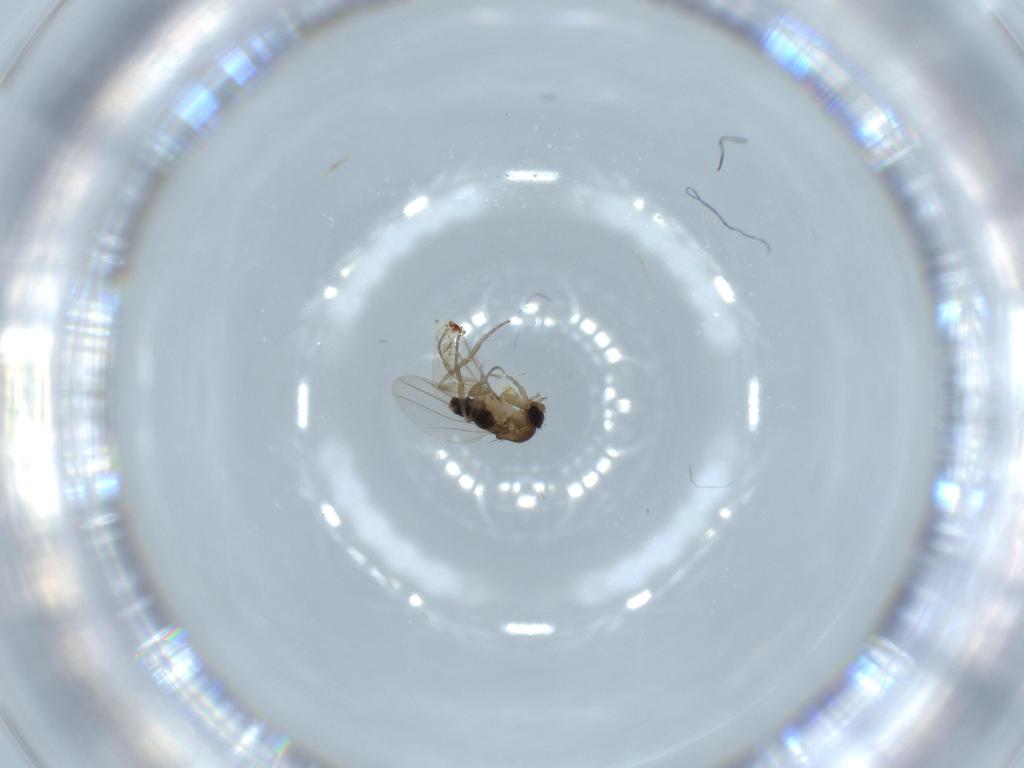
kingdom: Animalia
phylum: Arthropoda
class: Insecta
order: Diptera
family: Phoridae
